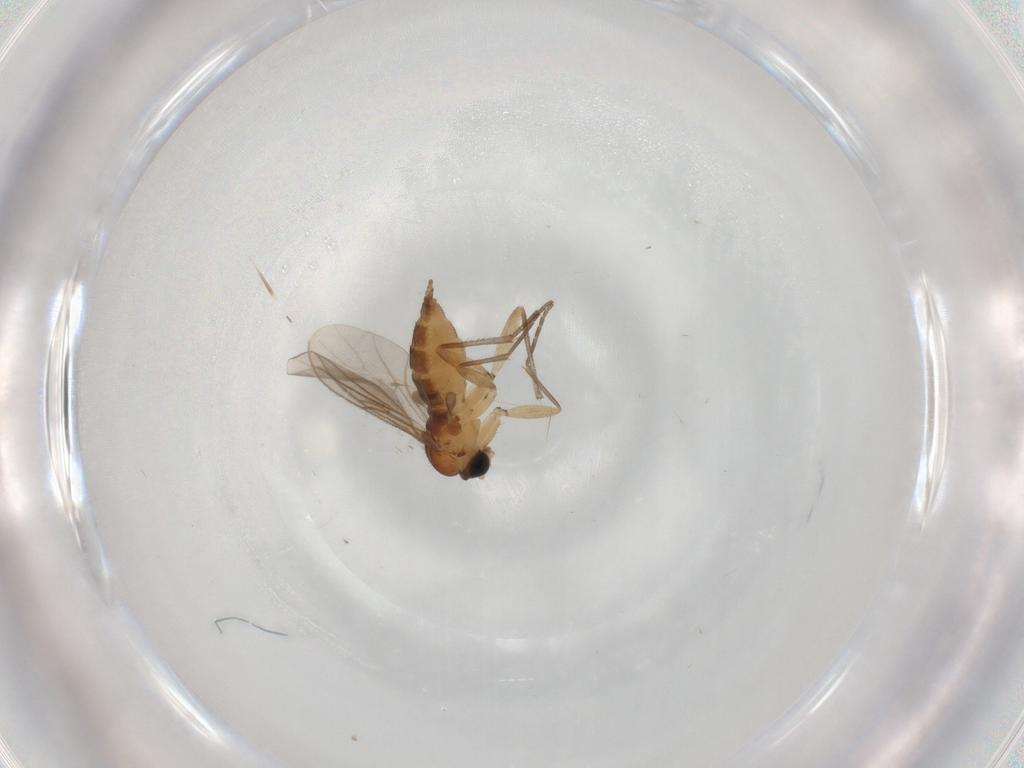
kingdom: Animalia
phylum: Arthropoda
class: Insecta
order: Diptera
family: Sciaridae
